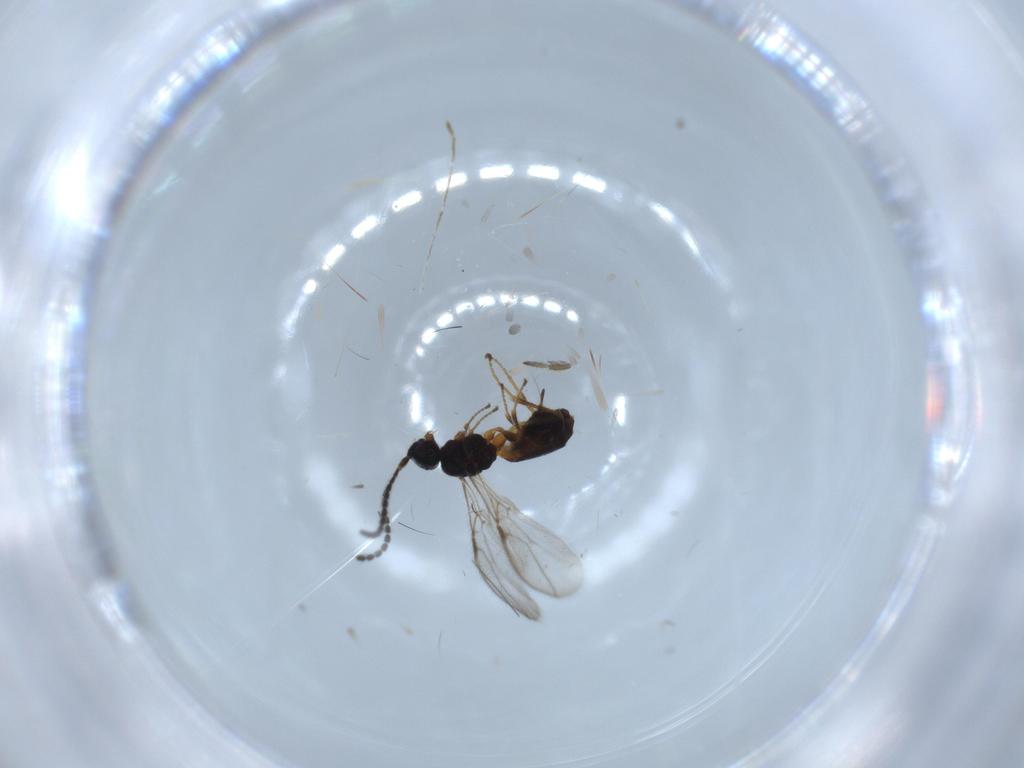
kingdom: Animalia
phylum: Arthropoda
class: Insecta
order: Hymenoptera
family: Braconidae
